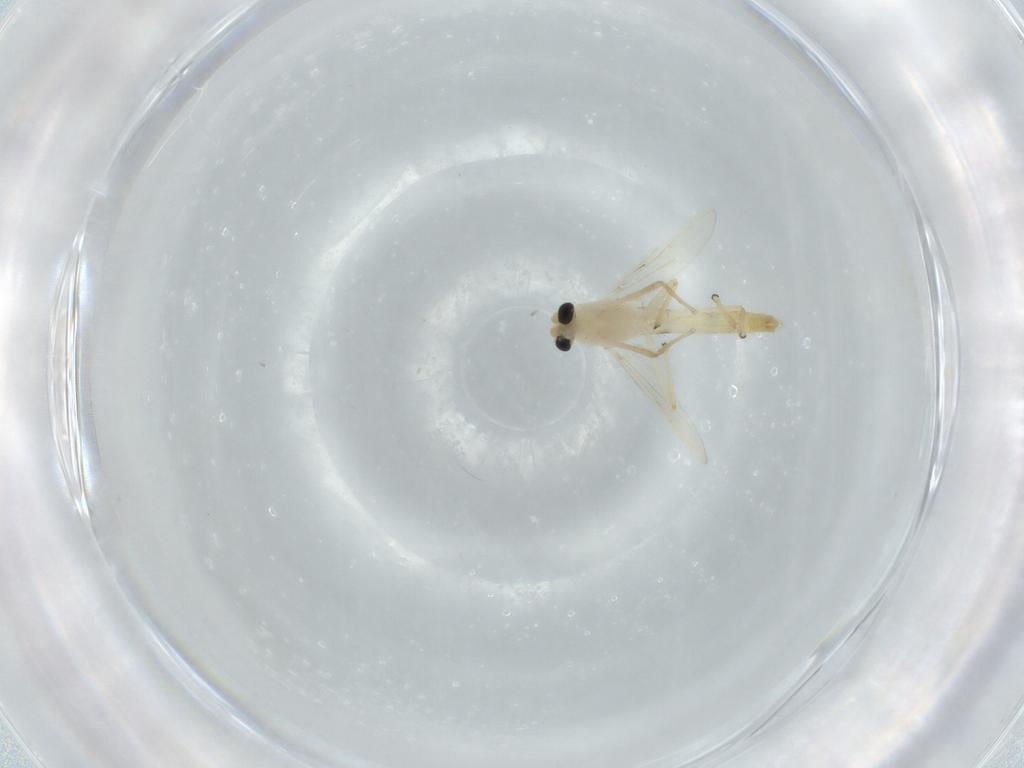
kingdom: Animalia
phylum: Arthropoda
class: Insecta
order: Diptera
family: Chironomidae
